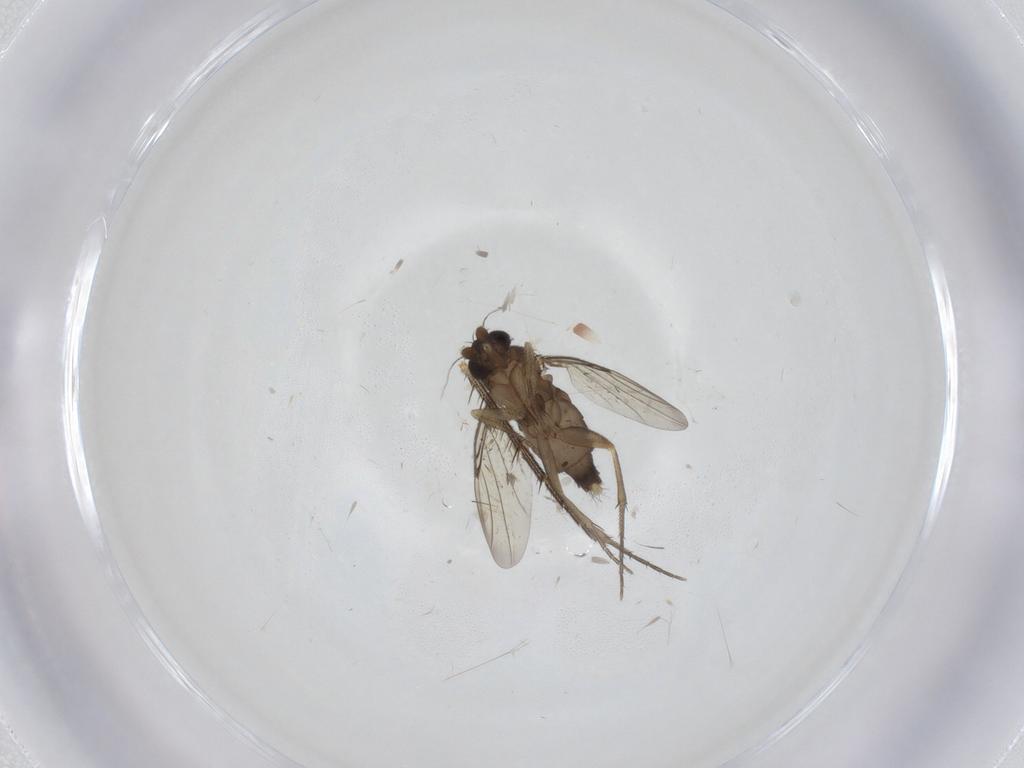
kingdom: Animalia
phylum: Arthropoda
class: Insecta
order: Diptera
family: Phoridae
